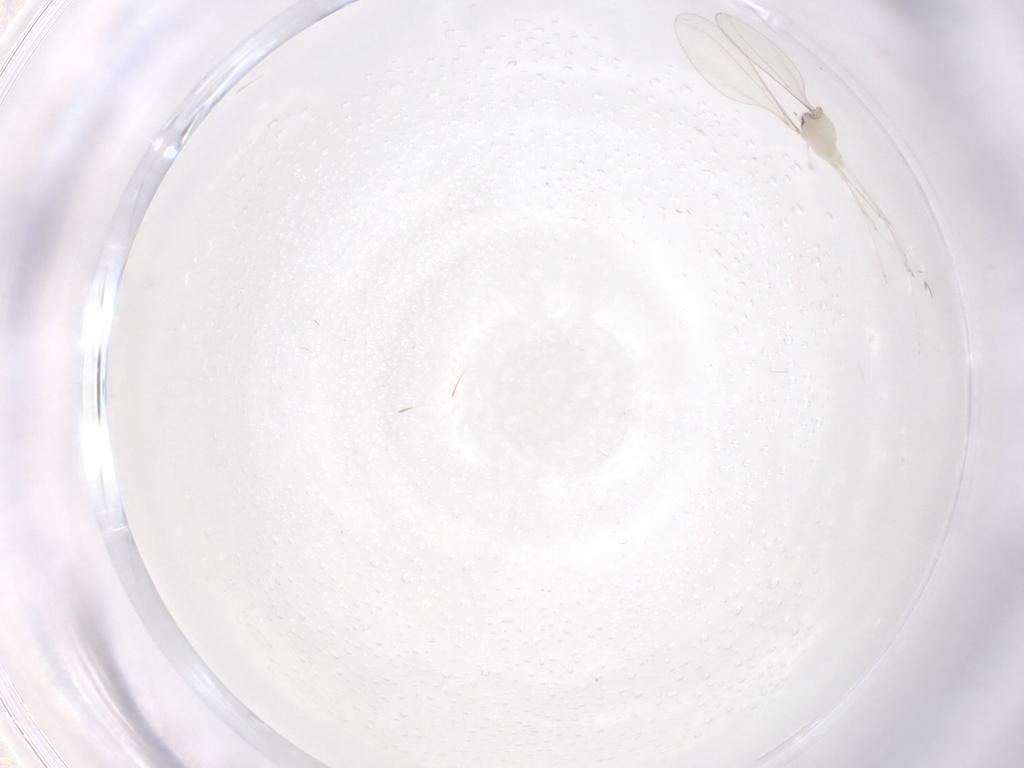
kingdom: Animalia
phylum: Arthropoda
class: Insecta
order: Diptera
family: Cecidomyiidae
